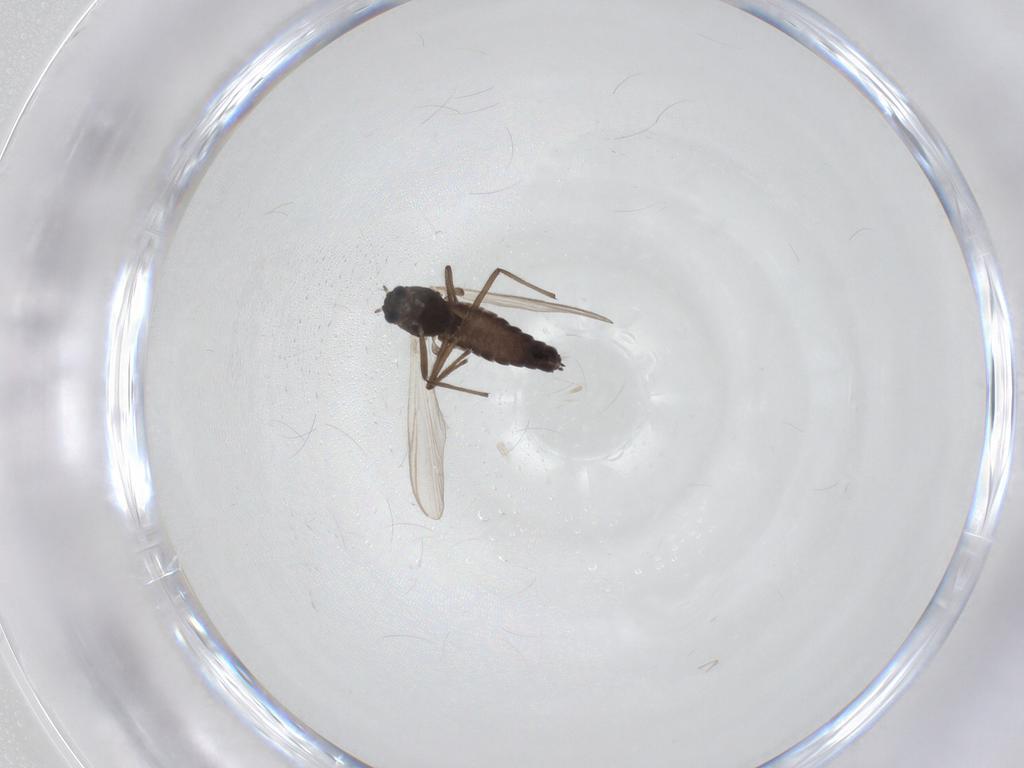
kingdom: Animalia
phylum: Arthropoda
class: Insecta
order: Diptera
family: Chironomidae
